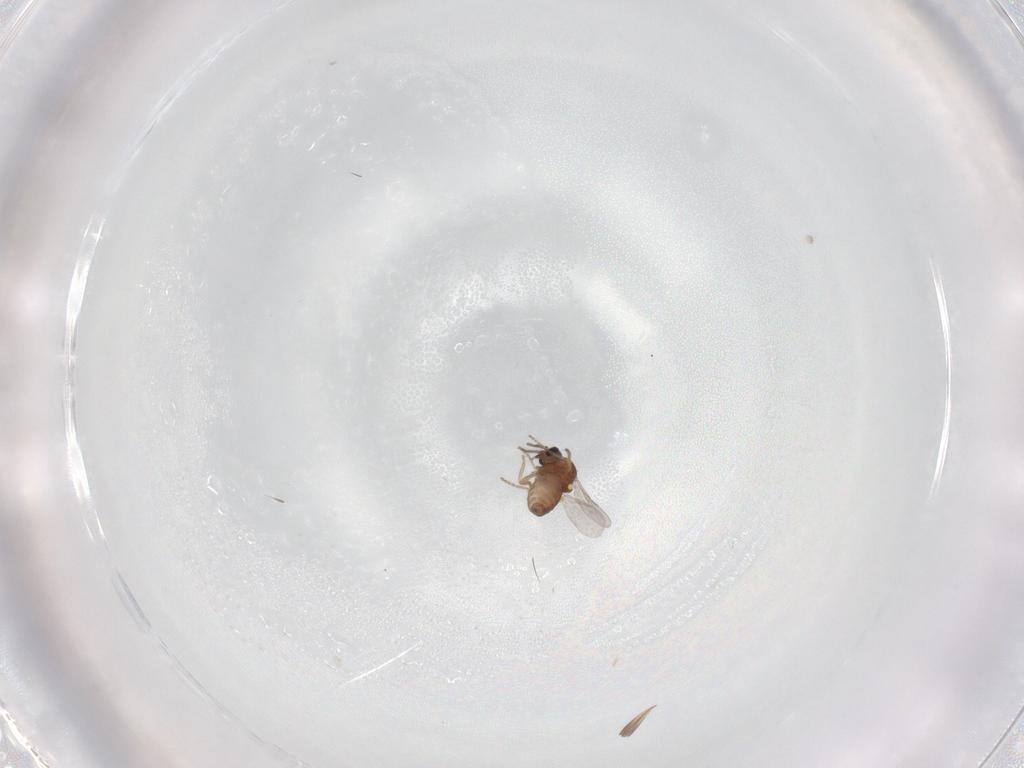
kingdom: Animalia
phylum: Arthropoda
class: Insecta
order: Diptera
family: Ceratopogonidae
